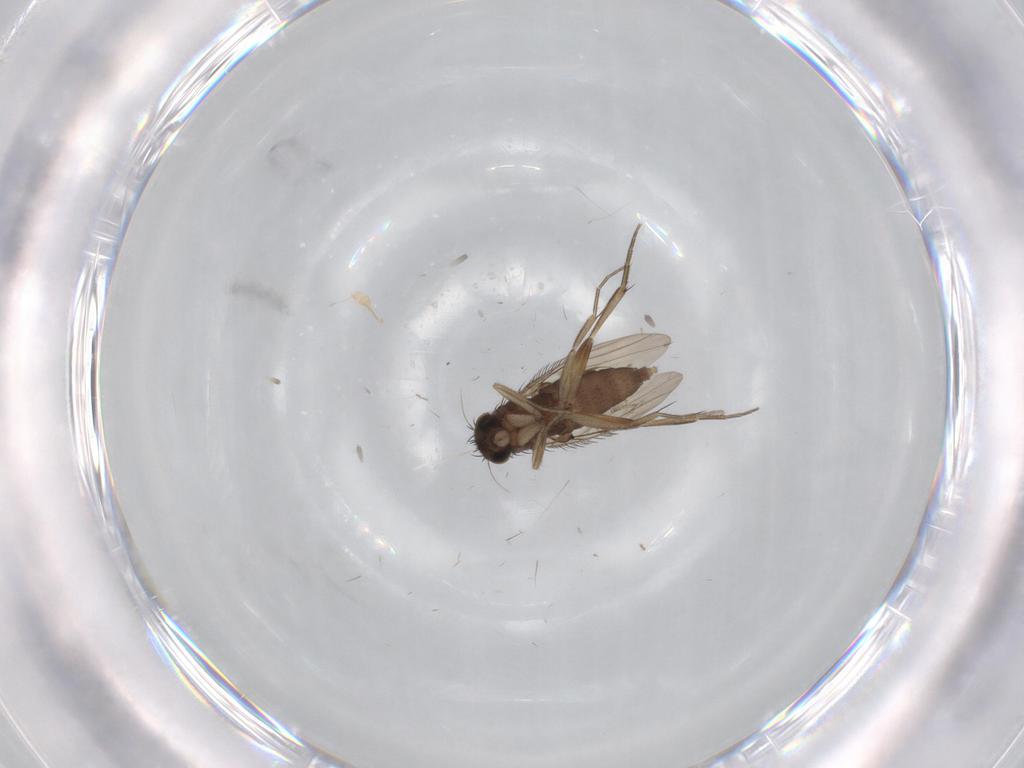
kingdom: Animalia
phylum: Arthropoda
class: Insecta
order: Diptera
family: Phoridae
